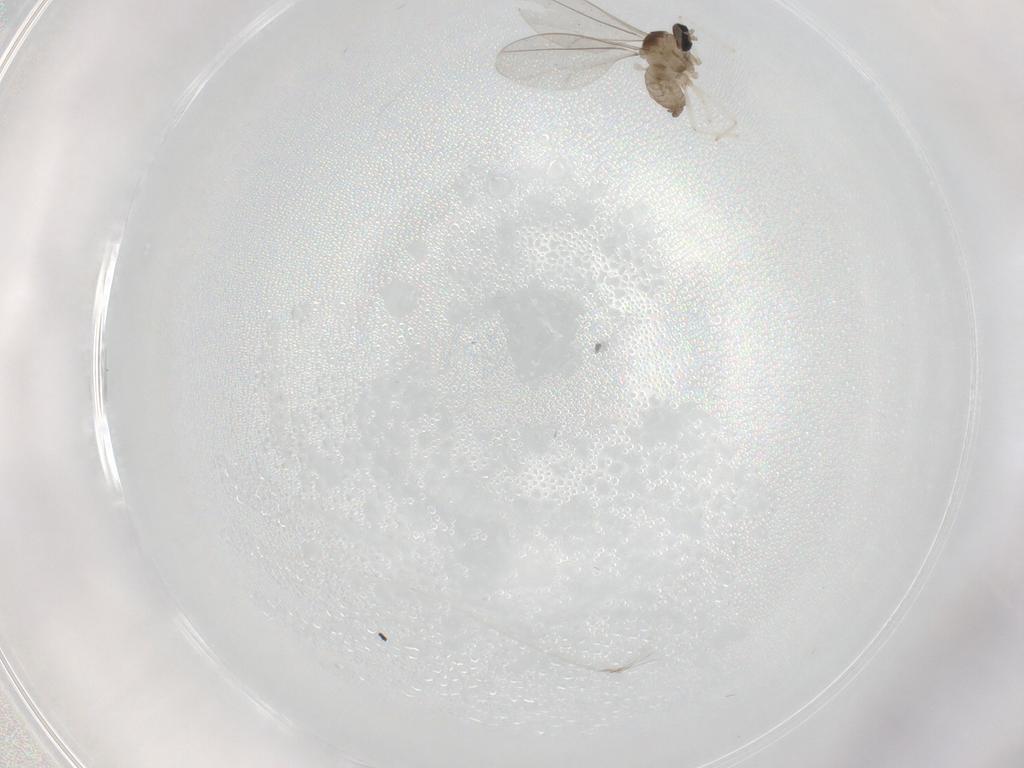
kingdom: Animalia
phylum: Arthropoda
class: Insecta
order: Diptera
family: Cecidomyiidae
